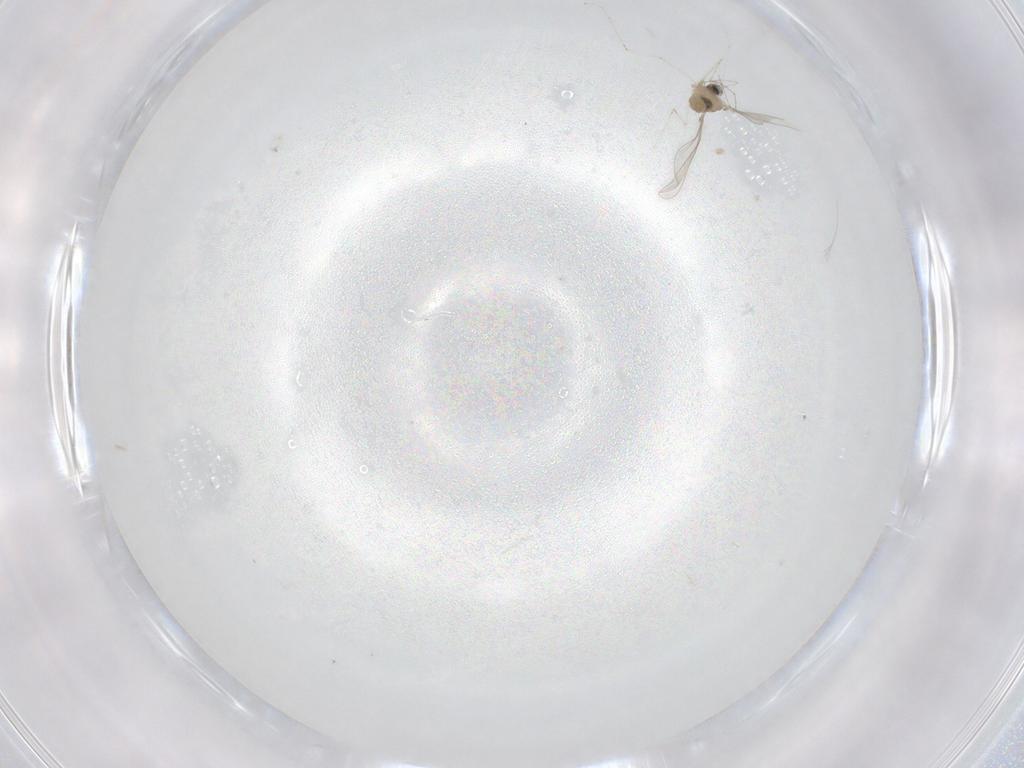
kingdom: Animalia
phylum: Arthropoda
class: Insecta
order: Diptera
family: Cecidomyiidae
